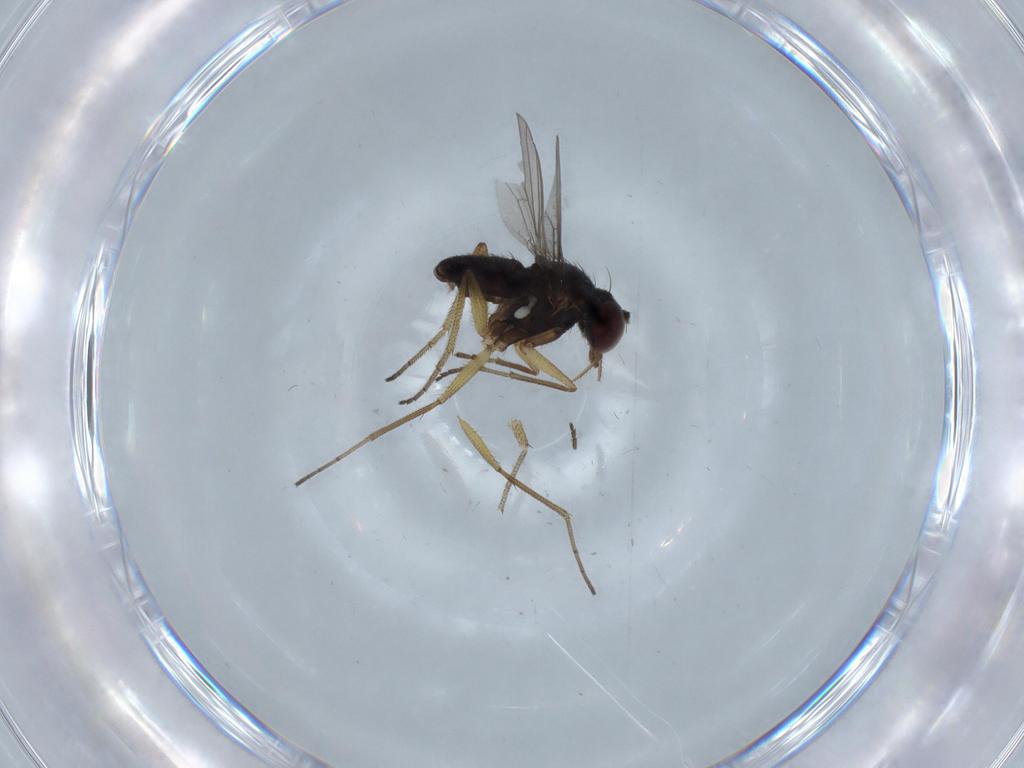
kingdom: Animalia
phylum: Arthropoda
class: Insecta
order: Diptera
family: Dolichopodidae
